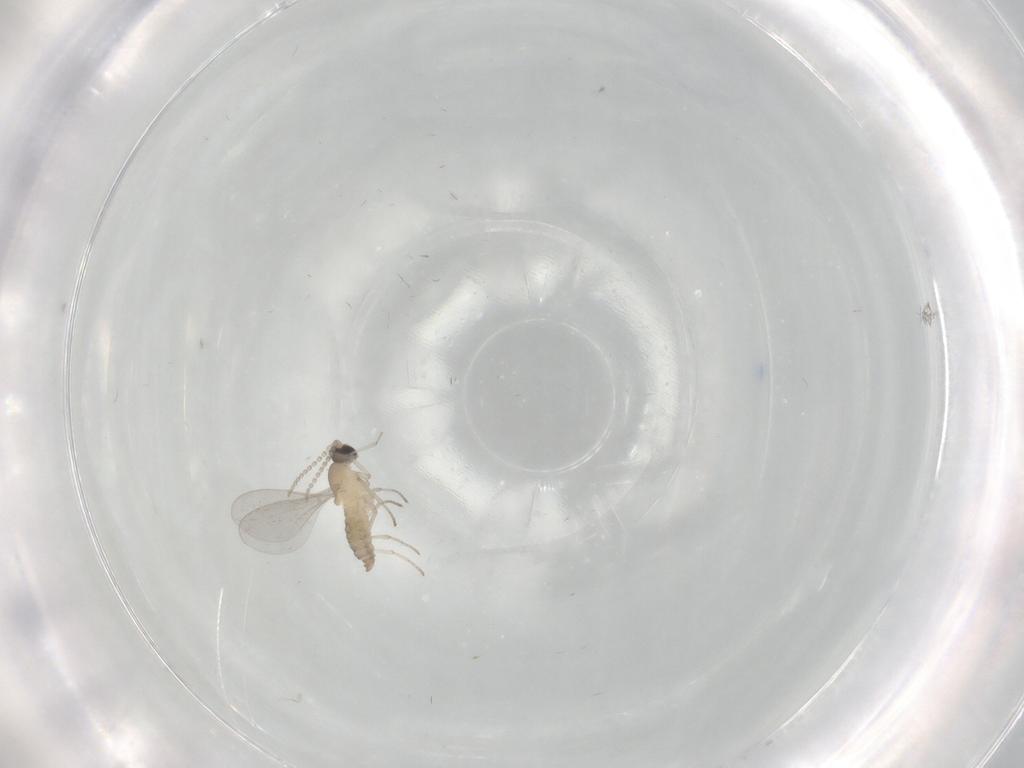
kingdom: Animalia
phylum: Arthropoda
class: Insecta
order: Diptera
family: Cecidomyiidae
